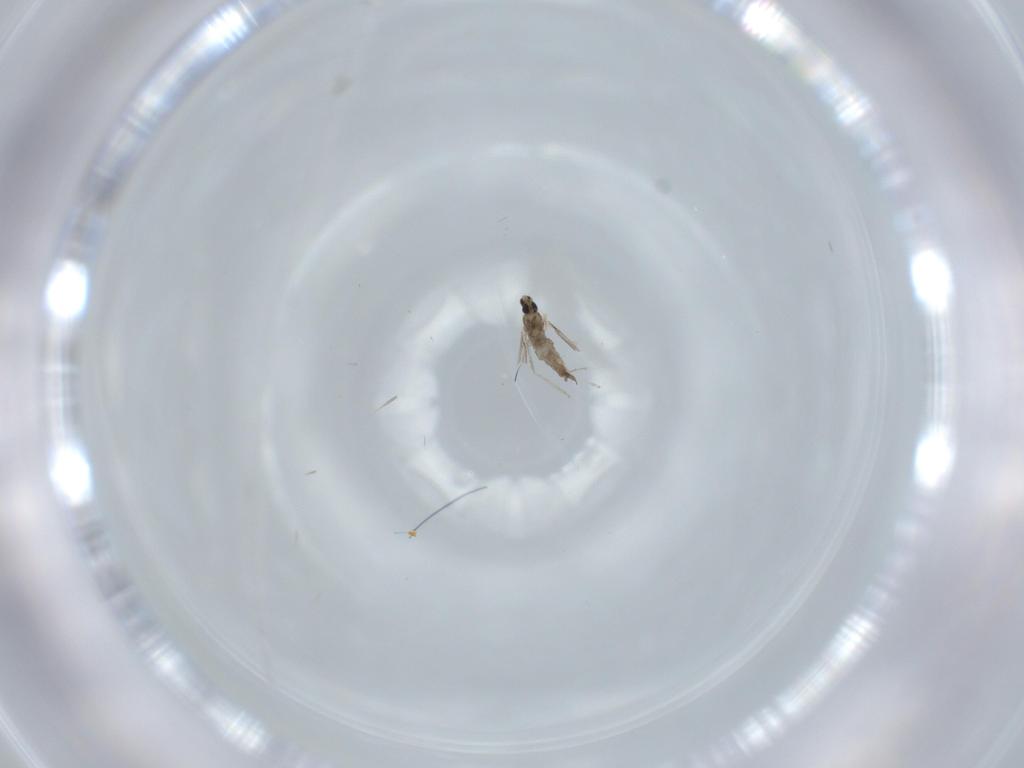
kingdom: Animalia
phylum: Arthropoda
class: Insecta
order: Diptera
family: Cecidomyiidae
